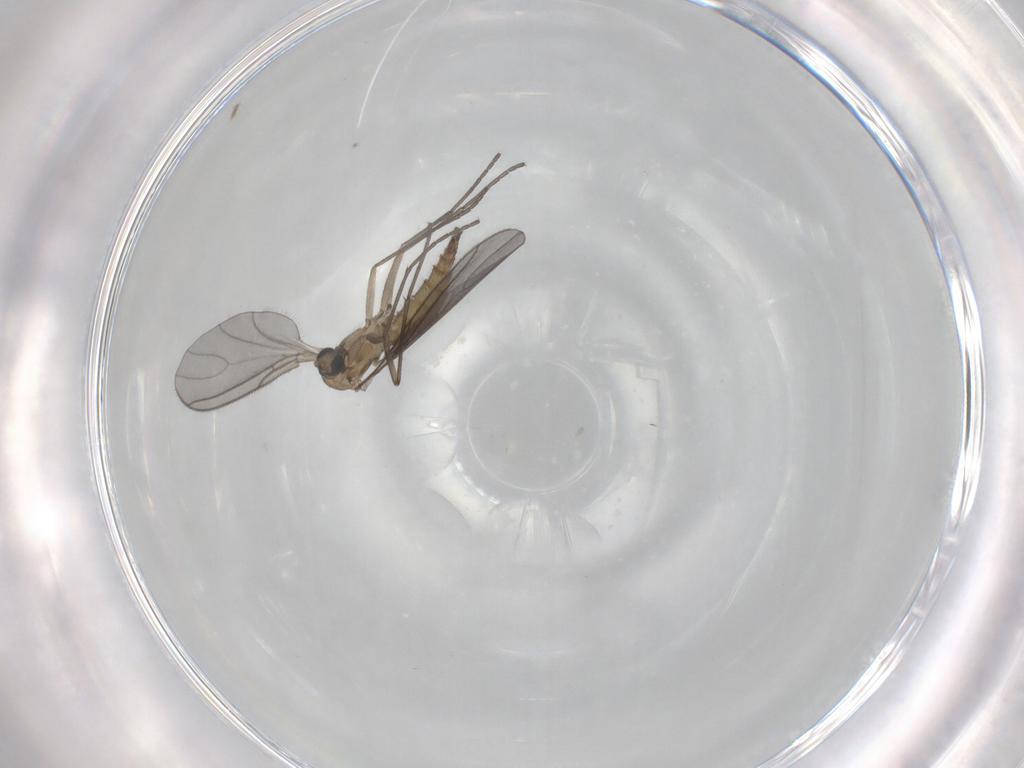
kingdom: Animalia
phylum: Arthropoda
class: Insecta
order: Diptera
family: Sciaridae
